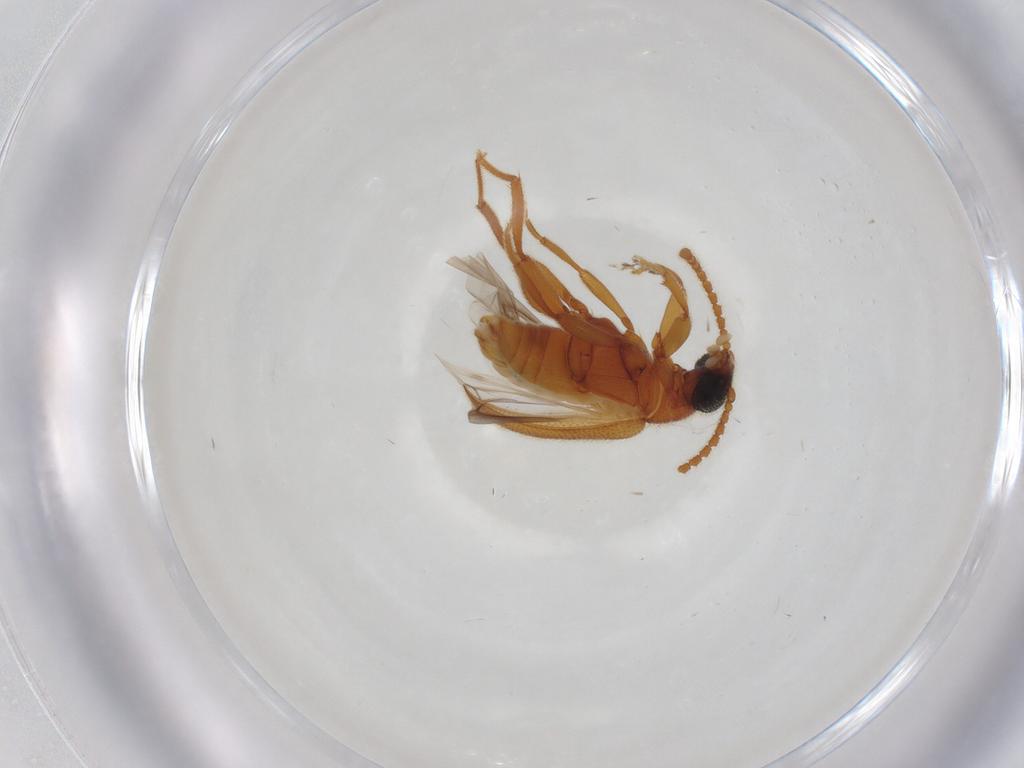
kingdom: Animalia
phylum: Arthropoda
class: Insecta
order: Coleoptera
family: Aderidae
